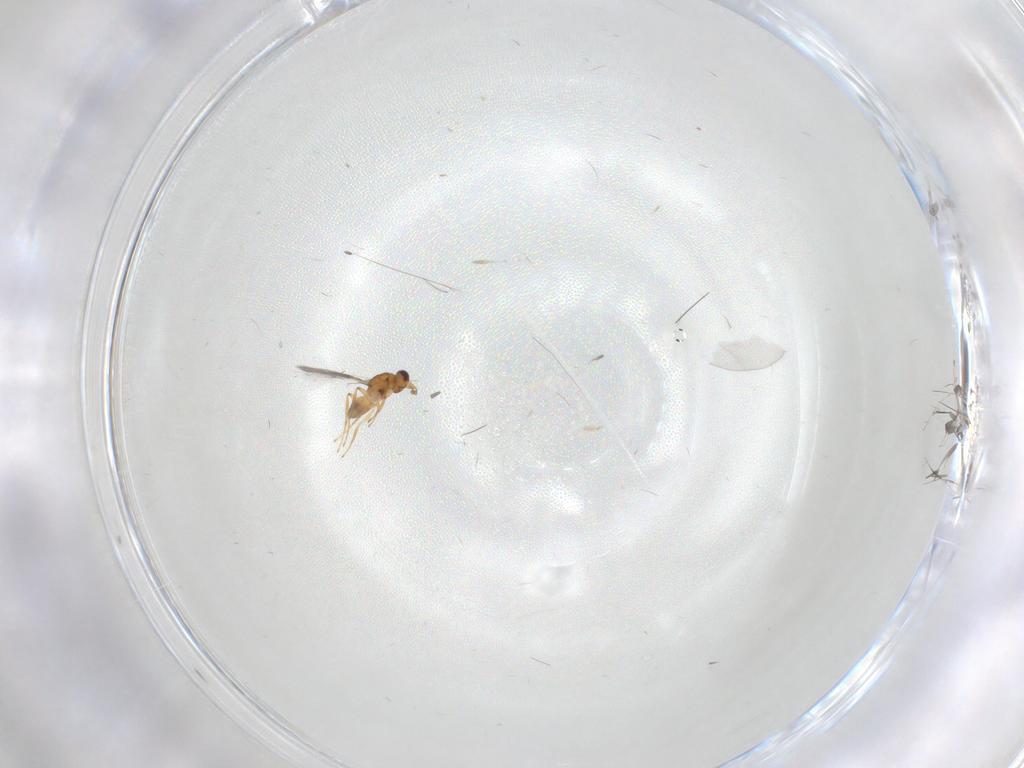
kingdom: Animalia
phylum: Arthropoda
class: Insecta
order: Hymenoptera
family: Mymaridae
